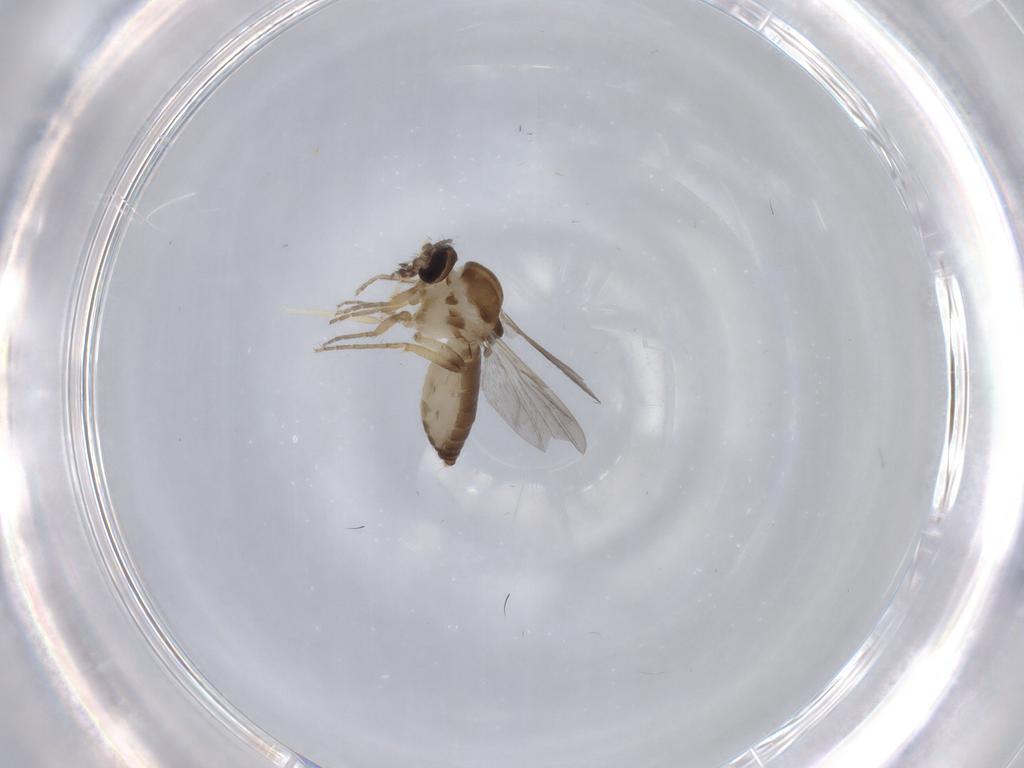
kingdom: Animalia
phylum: Arthropoda
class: Insecta
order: Diptera
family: Ceratopogonidae
